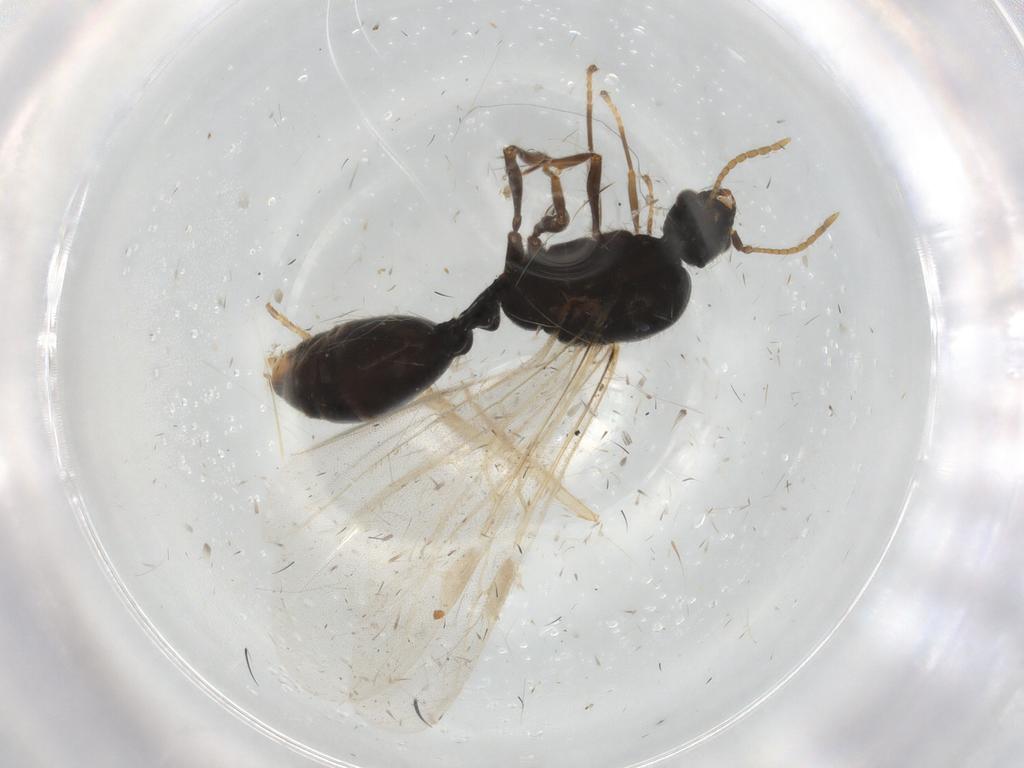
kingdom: Animalia
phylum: Arthropoda
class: Insecta
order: Hymenoptera
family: Formicidae
